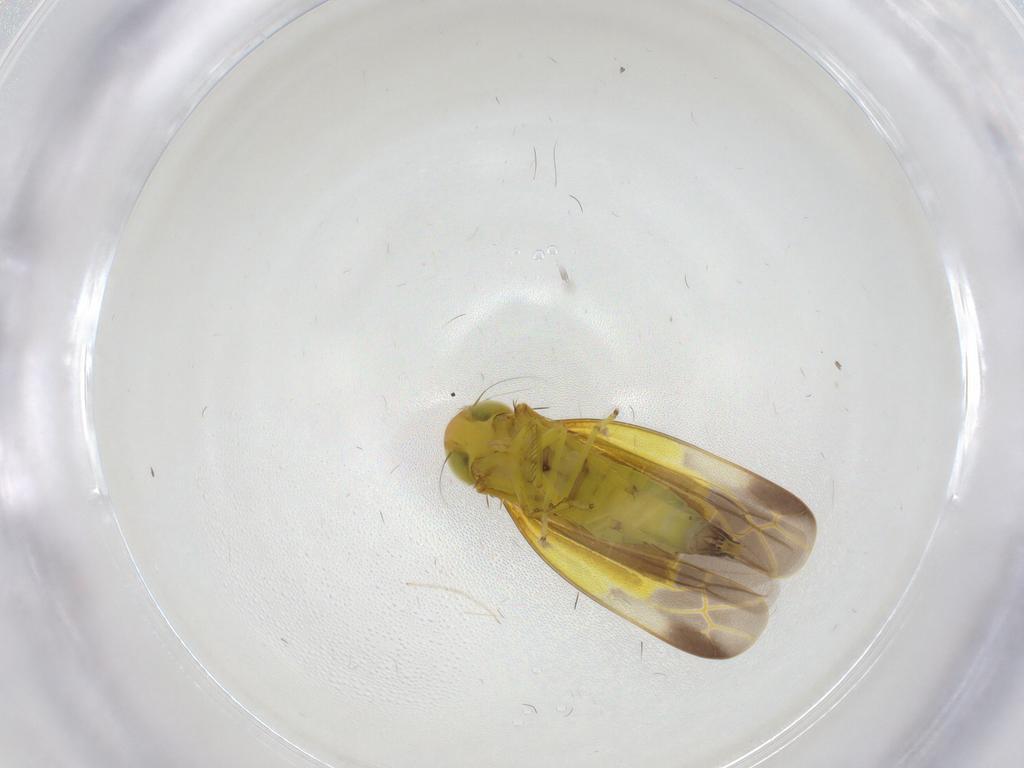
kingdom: Animalia
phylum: Arthropoda
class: Insecta
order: Hemiptera
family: Cicadellidae
